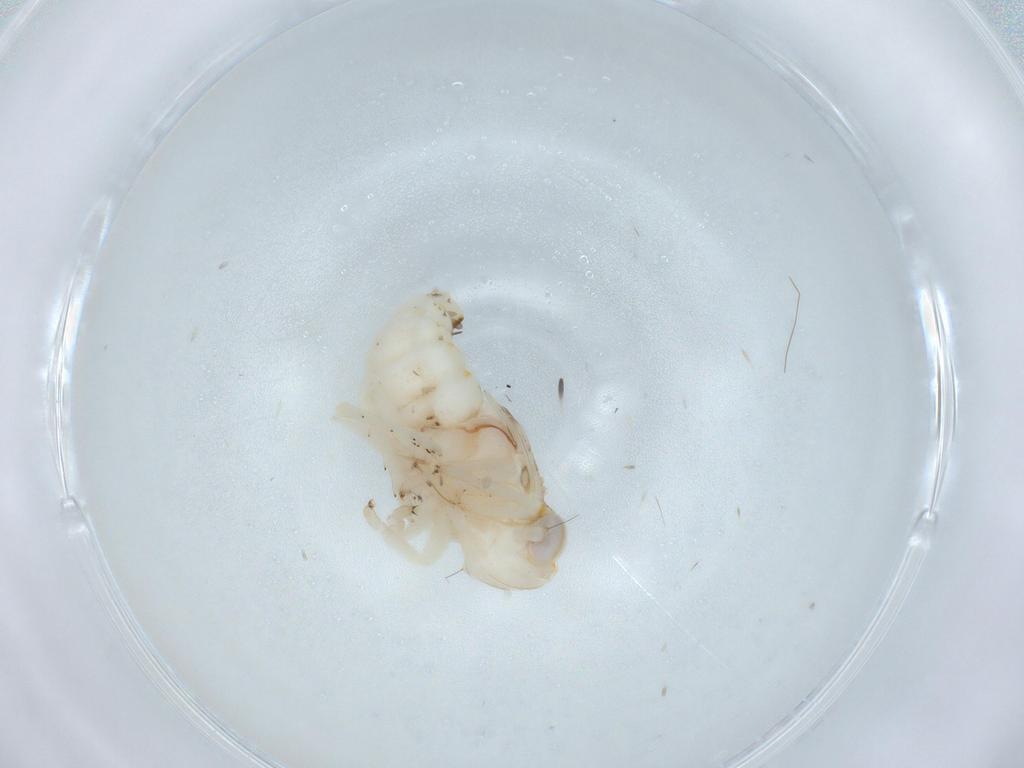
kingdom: Animalia
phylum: Arthropoda
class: Insecta
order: Hemiptera
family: Nogodinidae
